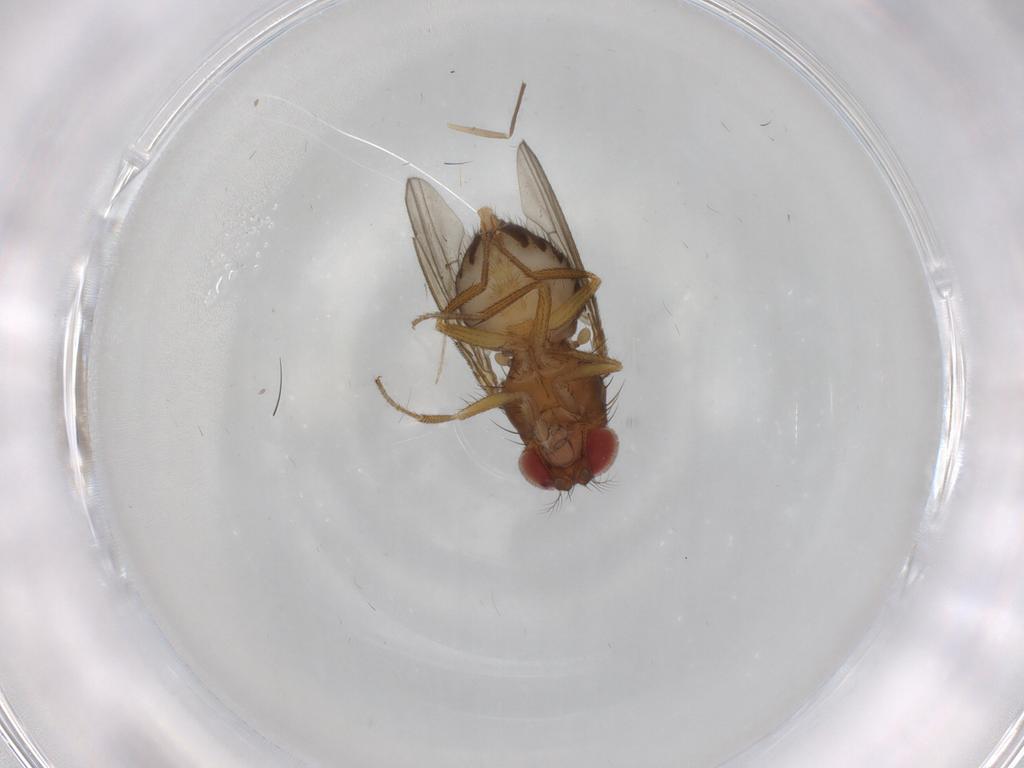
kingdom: Animalia
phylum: Arthropoda
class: Insecta
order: Diptera
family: Drosophilidae
